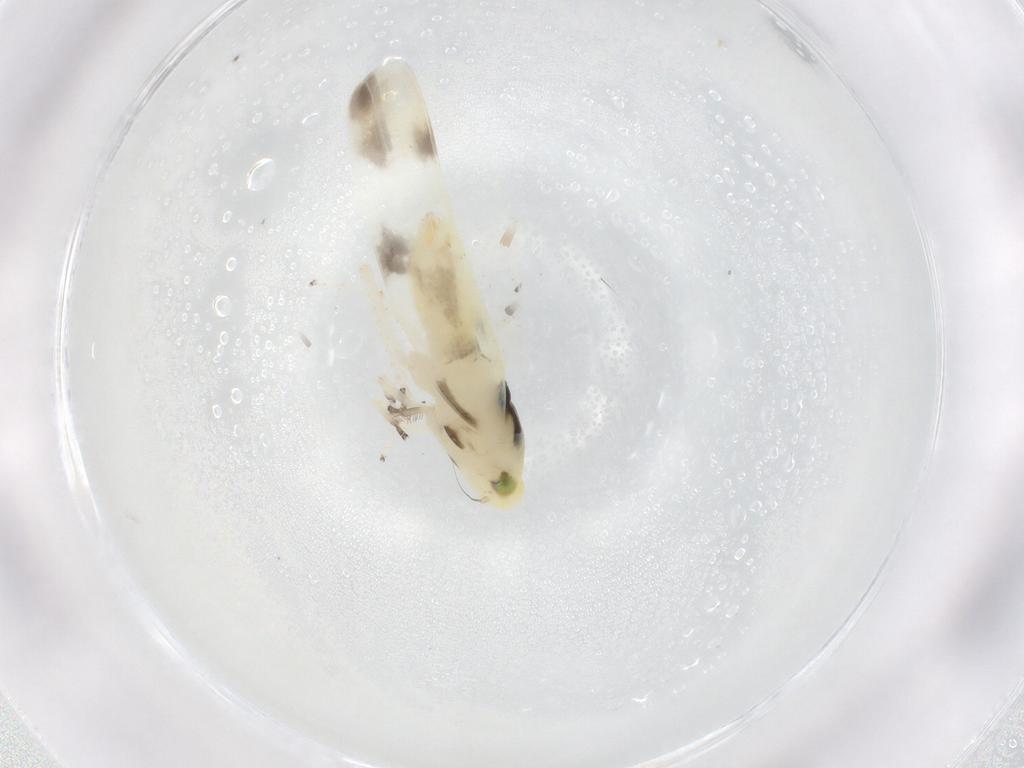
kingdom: Animalia
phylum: Arthropoda
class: Insecta
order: Hemiptera
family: Cicadellidae
